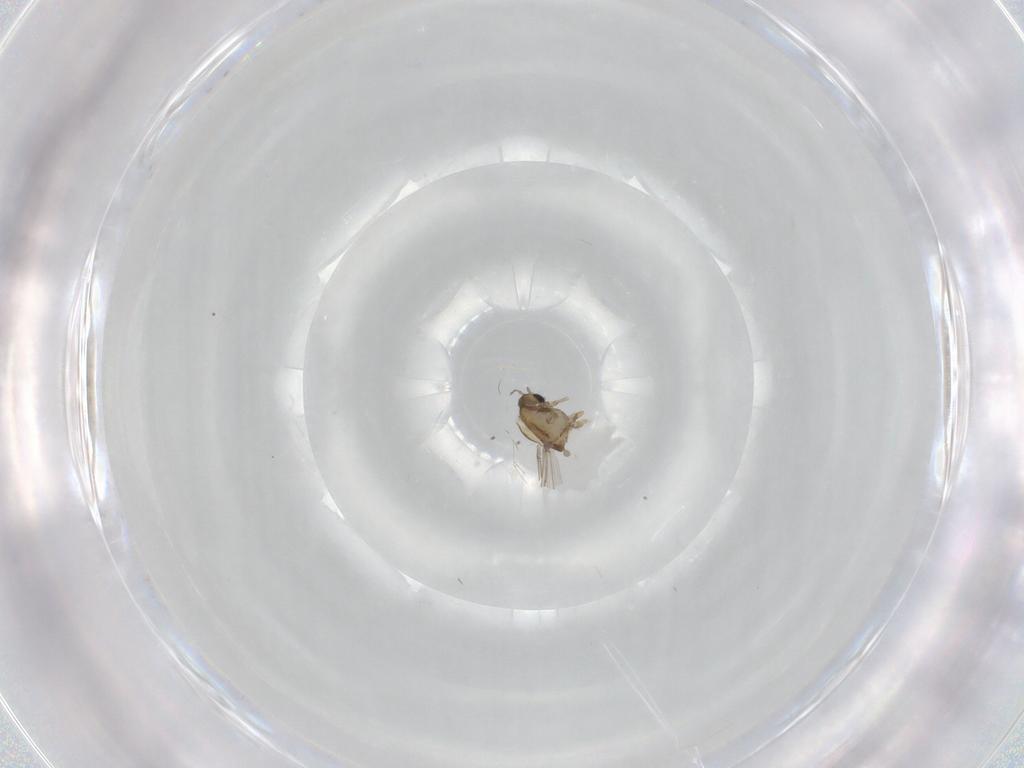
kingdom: Animalia
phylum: Arthropoda
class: Insecta
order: Diptera
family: Chironomidae
